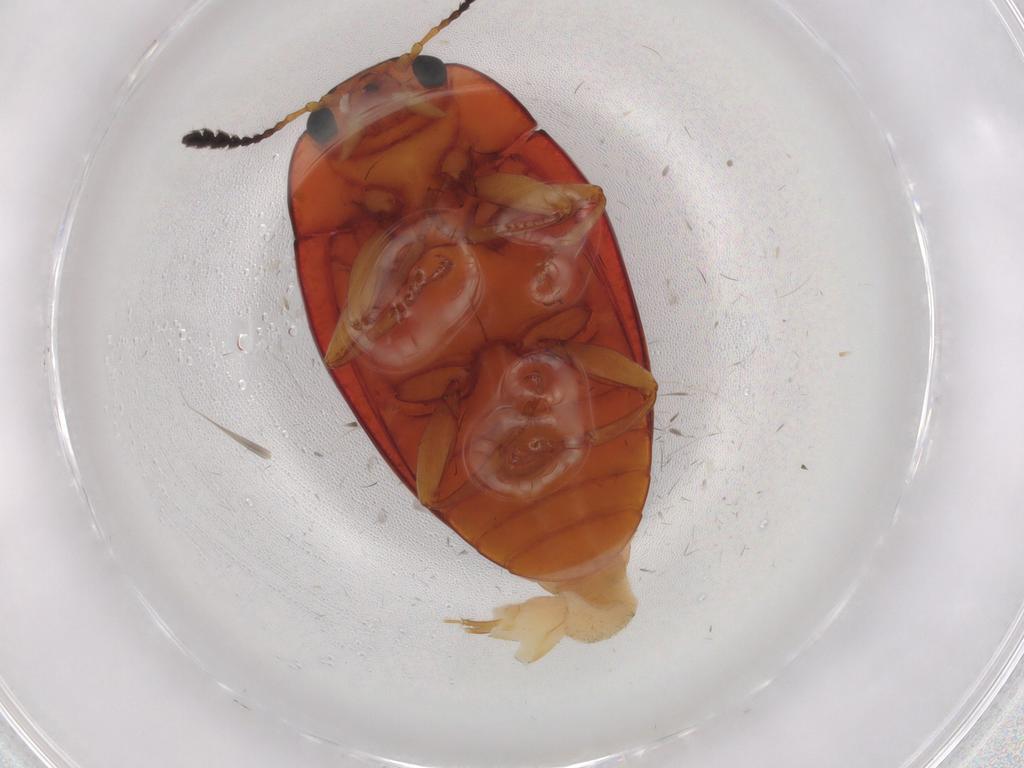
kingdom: Animalia
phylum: Arthropoda
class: Insecta
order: Coleoptera
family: Erotylidae
